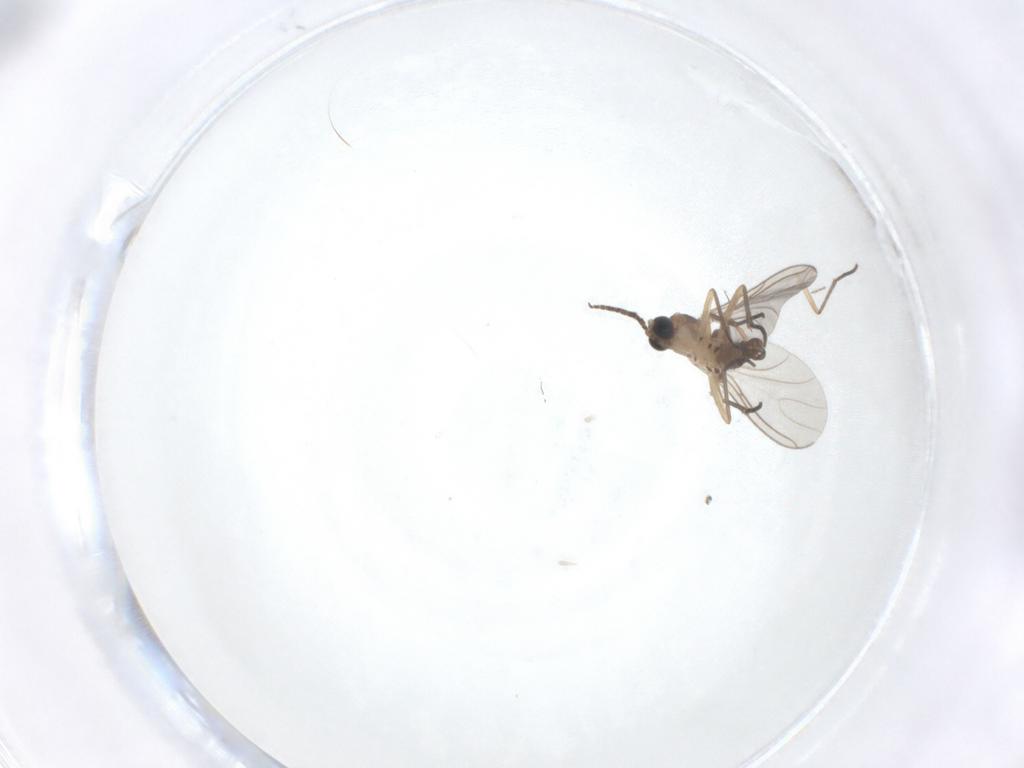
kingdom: Animalia
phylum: Arthropoda
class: Insecta
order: Diptera
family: Sciaridae
